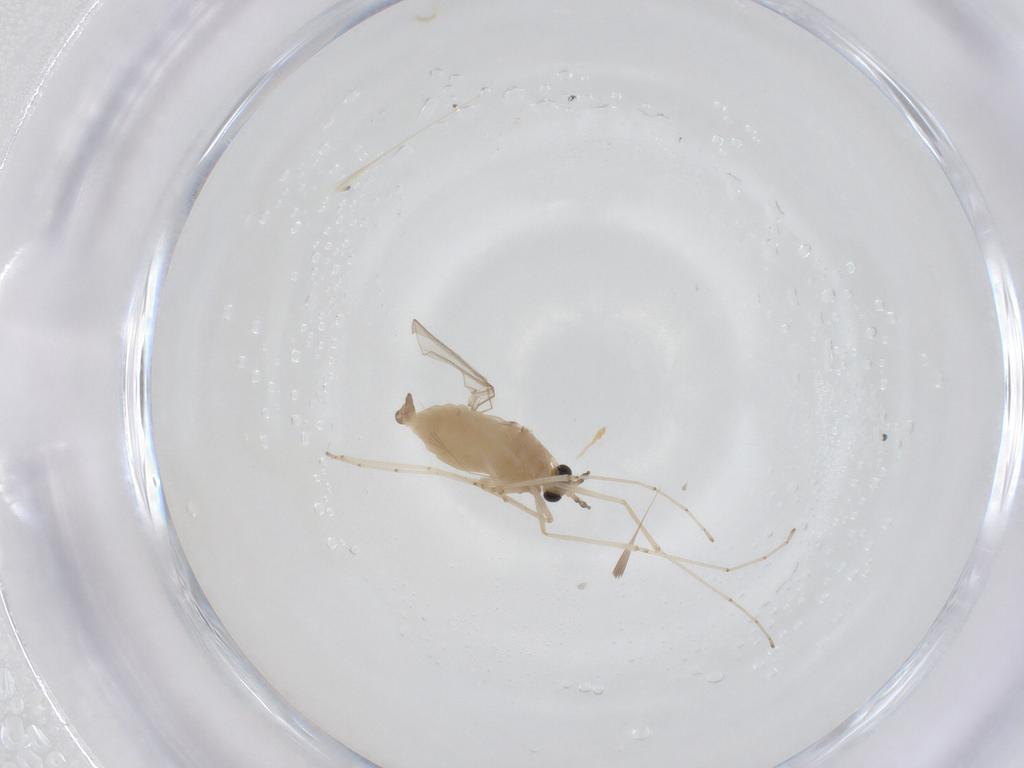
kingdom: Animalia
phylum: Arthropoda
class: Insecta
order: Diptera
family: Cecidomyiidae
